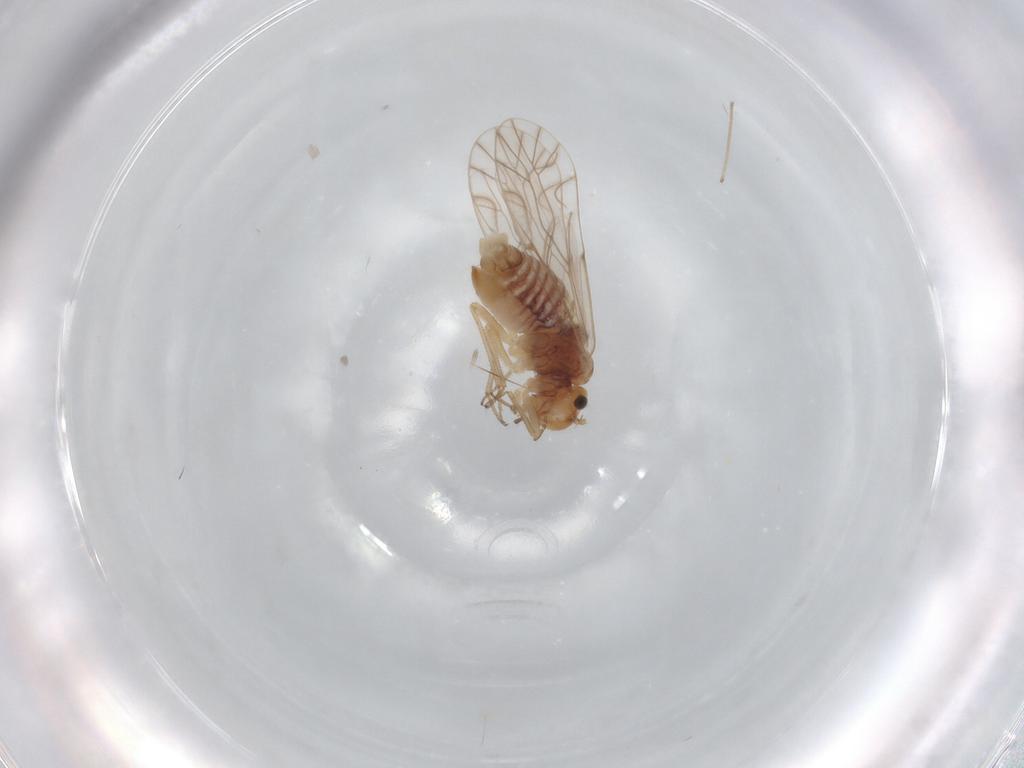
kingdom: Animalia
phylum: Arthropoda
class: Insecta
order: Psocodea
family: Lachesillidae
